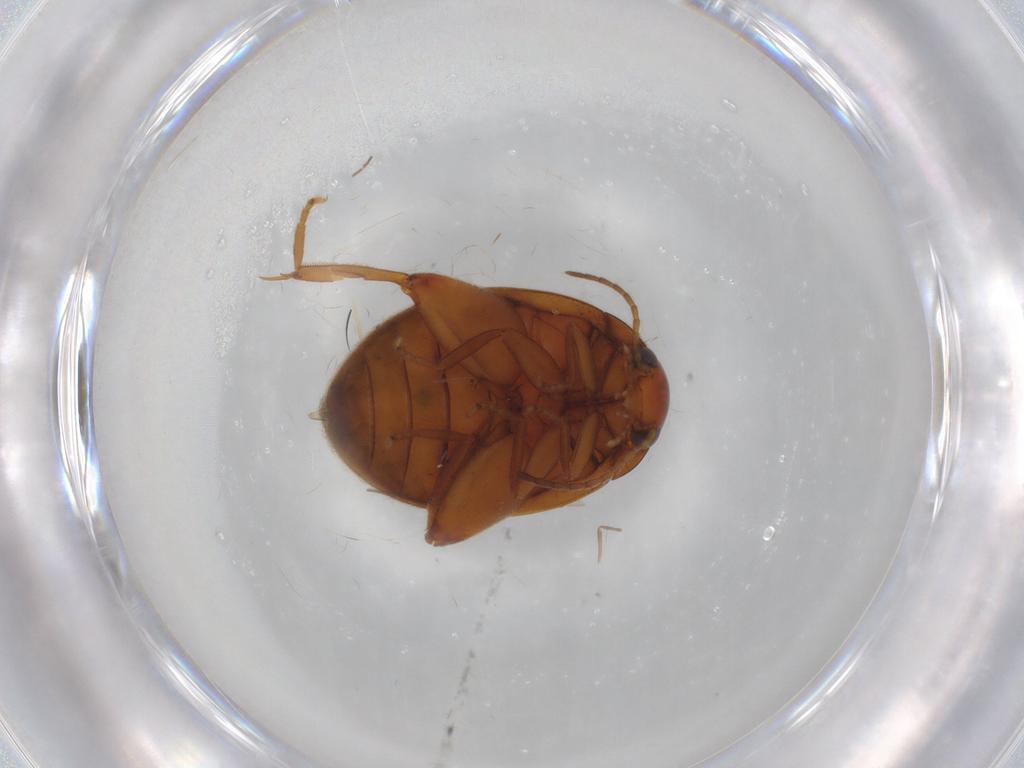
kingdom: Animalia
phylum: Arthropoda
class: Insecta
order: Coleoptera
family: Scirtidae
